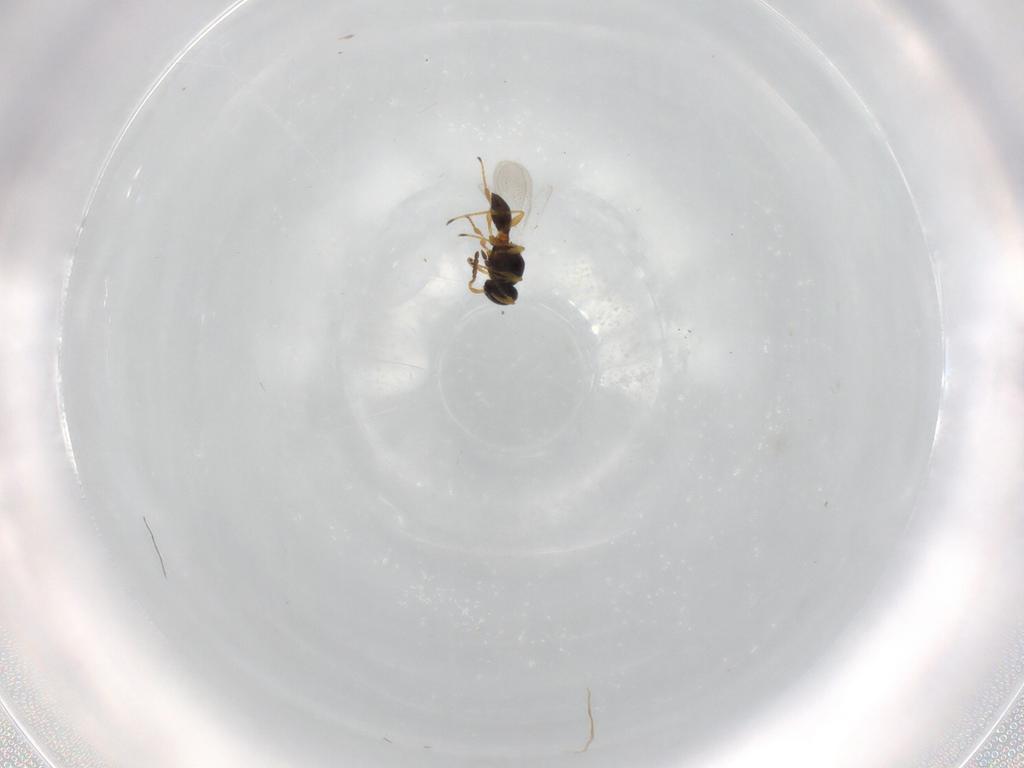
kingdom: Animalia
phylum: Arthropoda
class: Insecta
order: Hymenoptera
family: Platygastridae
